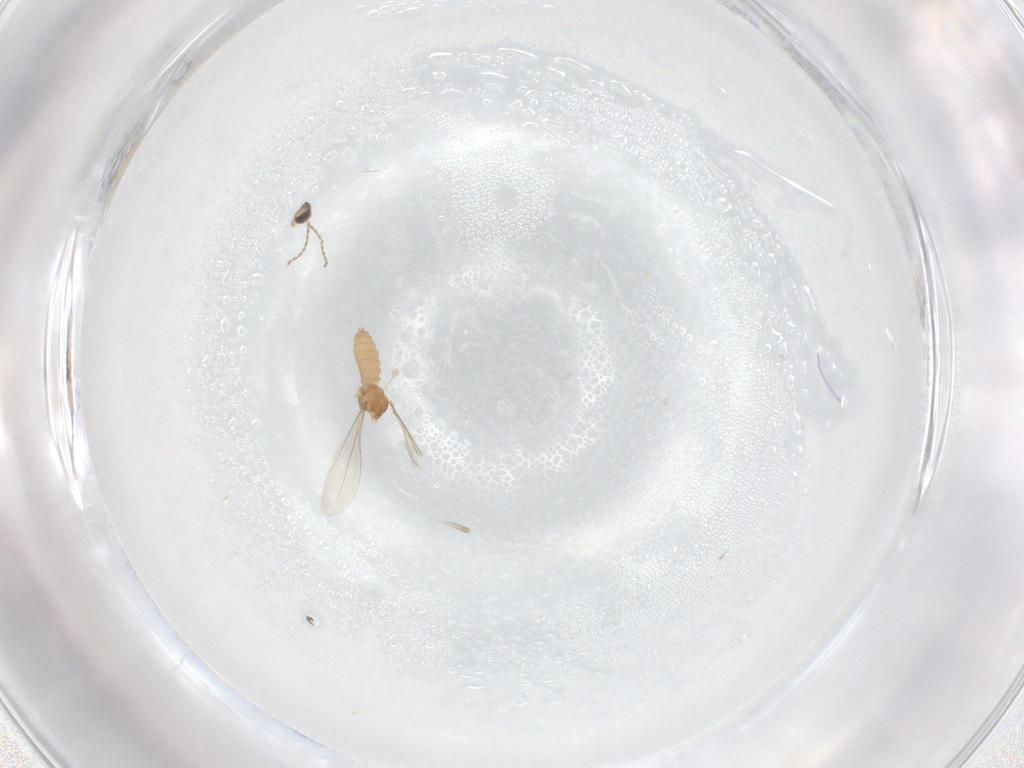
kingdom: Animalia
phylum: Arthropoda
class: Insecta
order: Diptera
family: Cecidomyiidae
